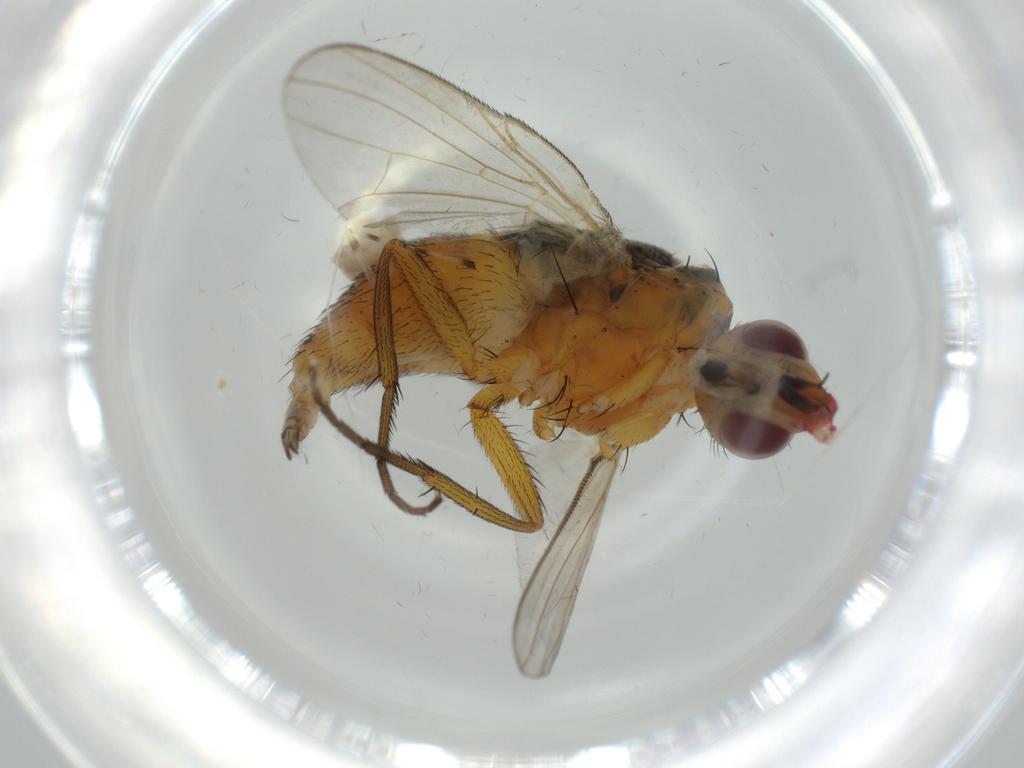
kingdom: Animalia
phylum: Arthropoda
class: Insecta
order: Diptera
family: Muscidae
